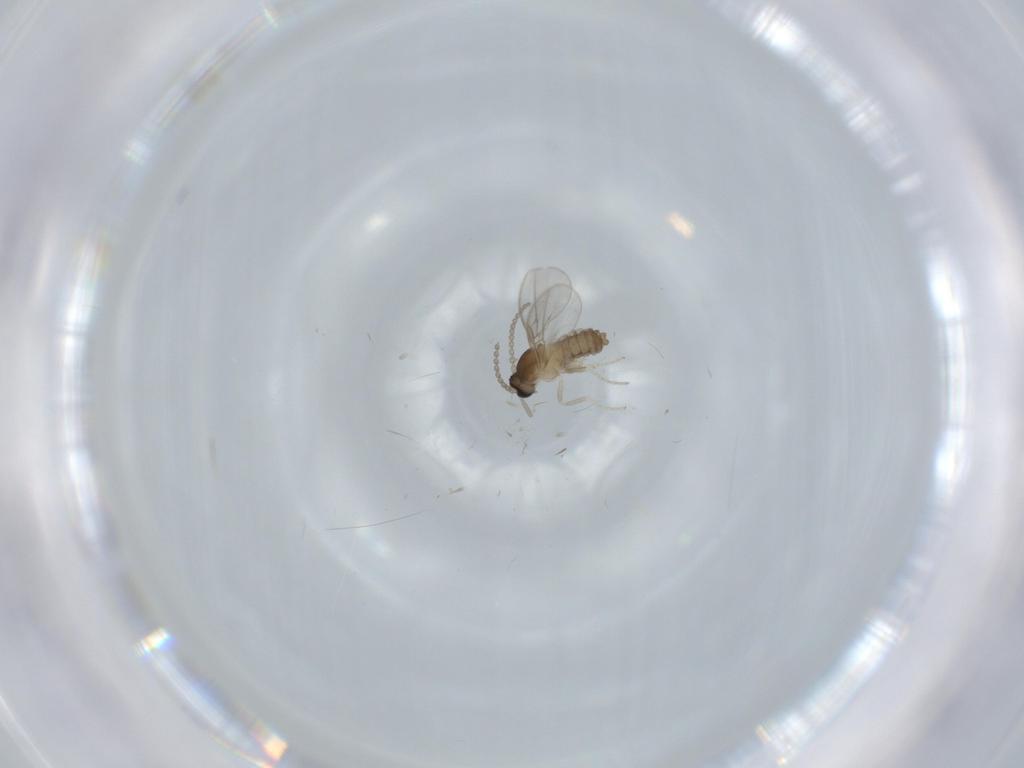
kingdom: Animalia
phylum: Arthropoda
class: Insecta
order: Diptera
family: Cecidomyiidae
